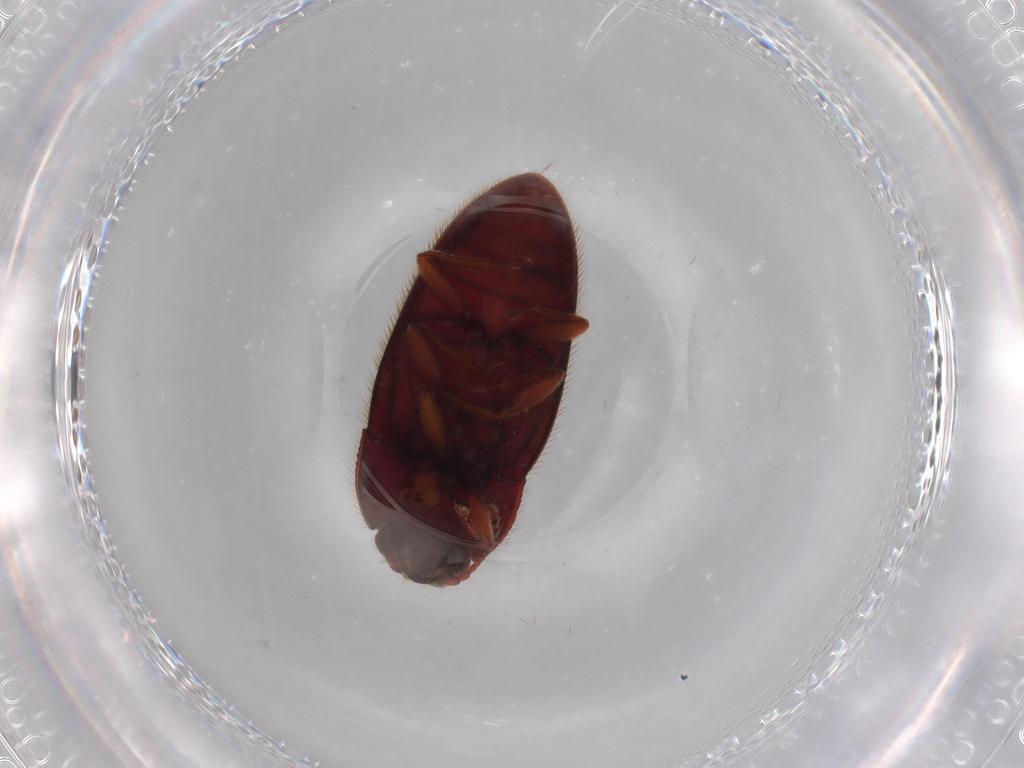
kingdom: Animalia
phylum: Arthropoda
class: Insecta
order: Coleoptera
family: Biphyllidae
